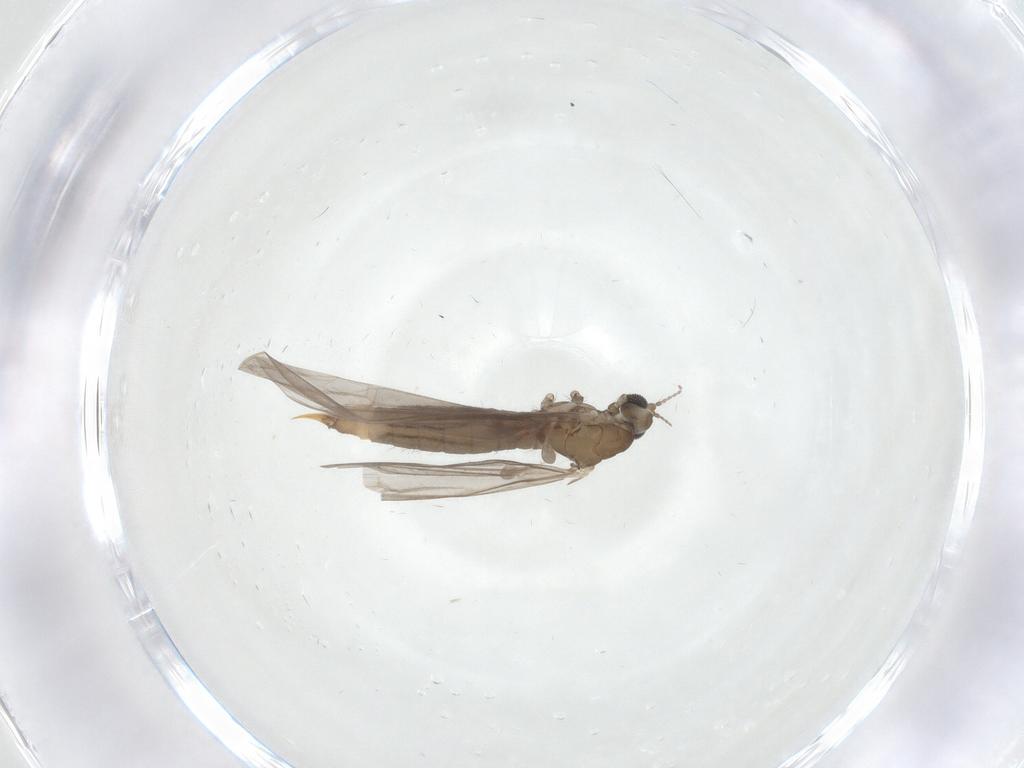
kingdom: Animalia
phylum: Arthropoda
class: Insecta
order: Diptera
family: Limoniidae
